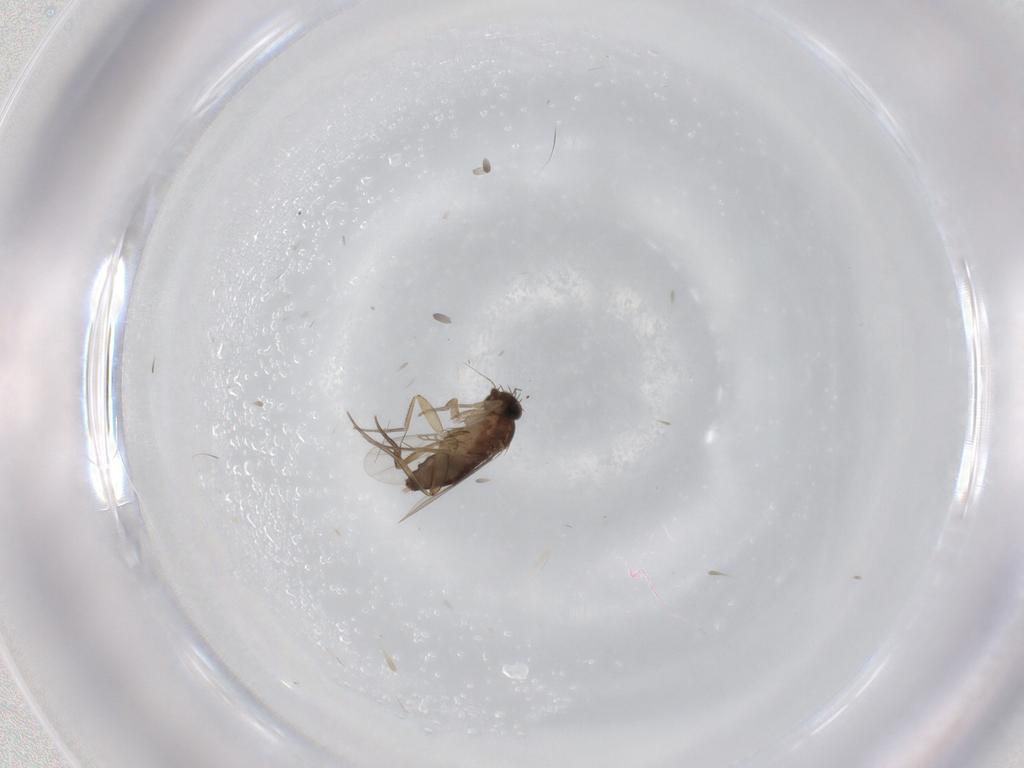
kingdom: Animalia
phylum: Arthropoda
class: Insecta
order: Diptera
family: Phoridae
